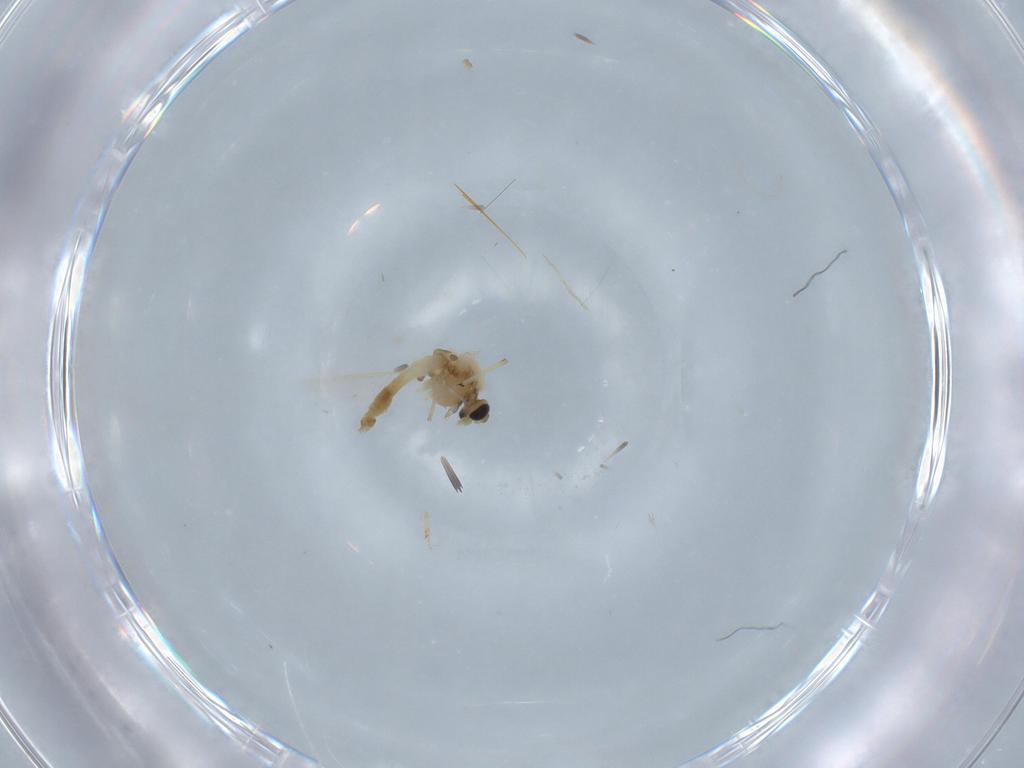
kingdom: Animalia
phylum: Arthropoda
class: Insecta
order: Diptera
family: Chironomidae
